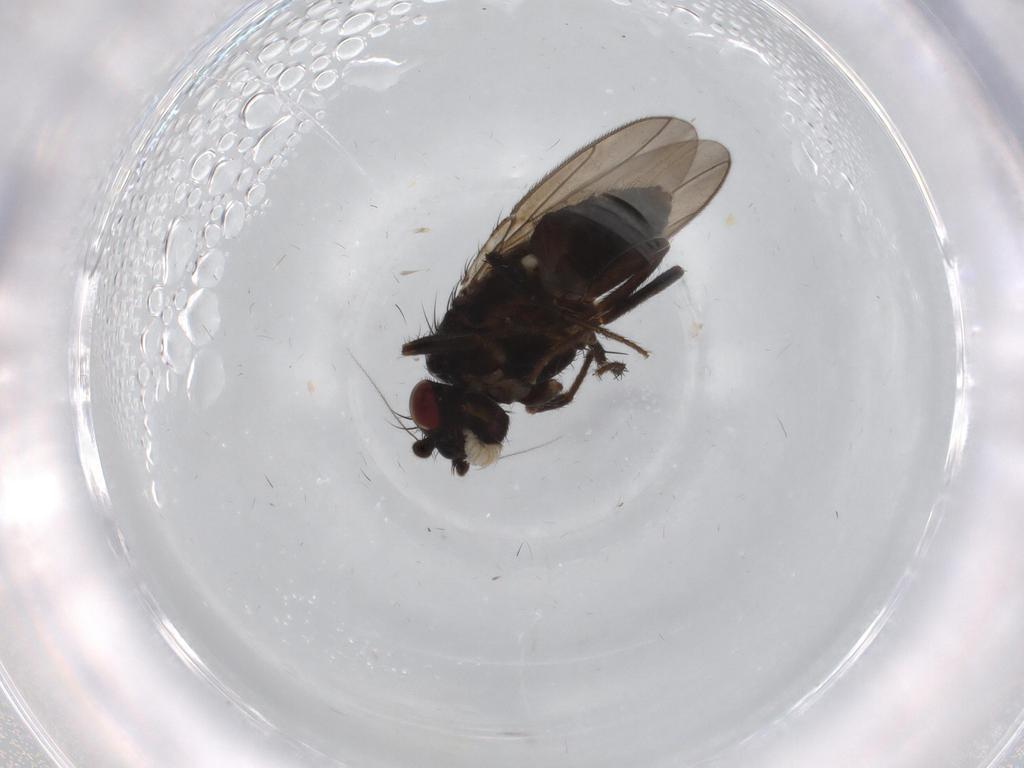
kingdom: Animalia
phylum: Arthropoda
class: Insecta
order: Diptera
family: Sphaeroceridae
